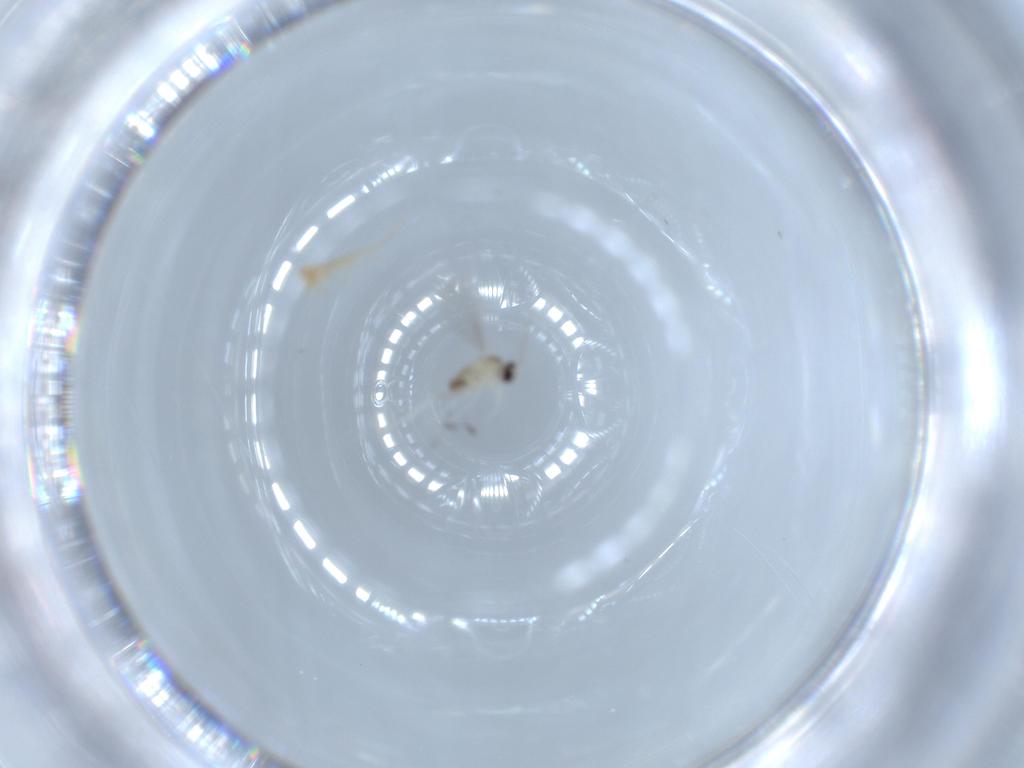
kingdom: Animalia
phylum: Arthropoda
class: Insecta
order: Diptera
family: Cecidomyiidae
